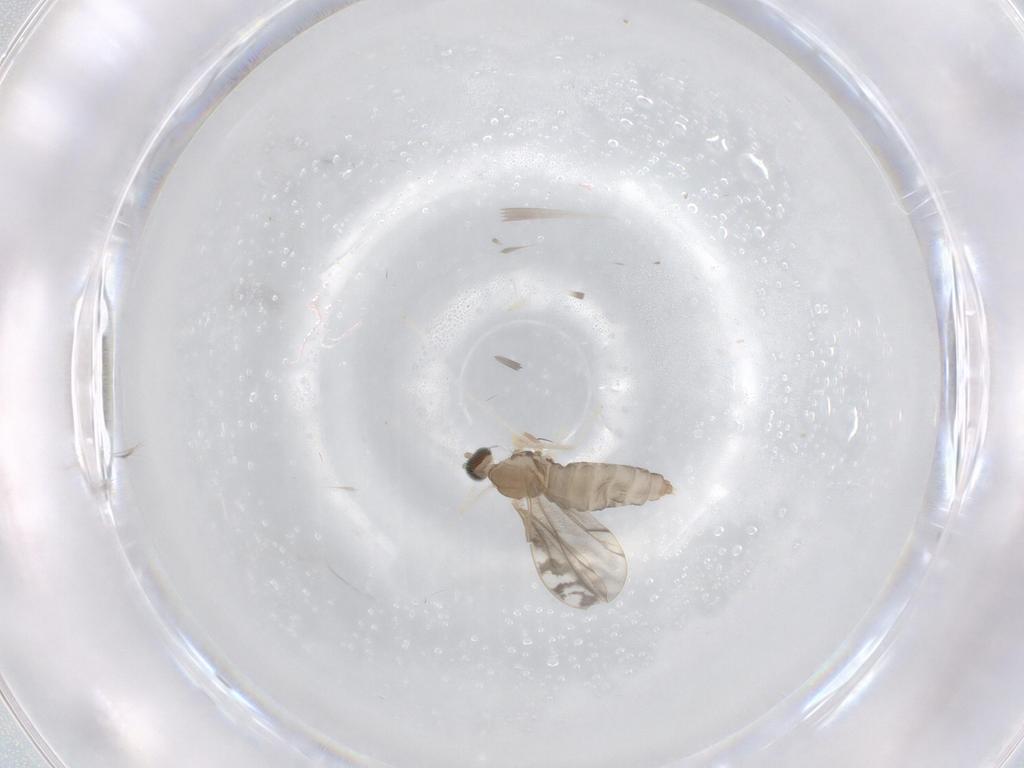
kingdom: Animalia
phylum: Arthropoda
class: Insecta
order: Diptera
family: Cecidomyiidae
